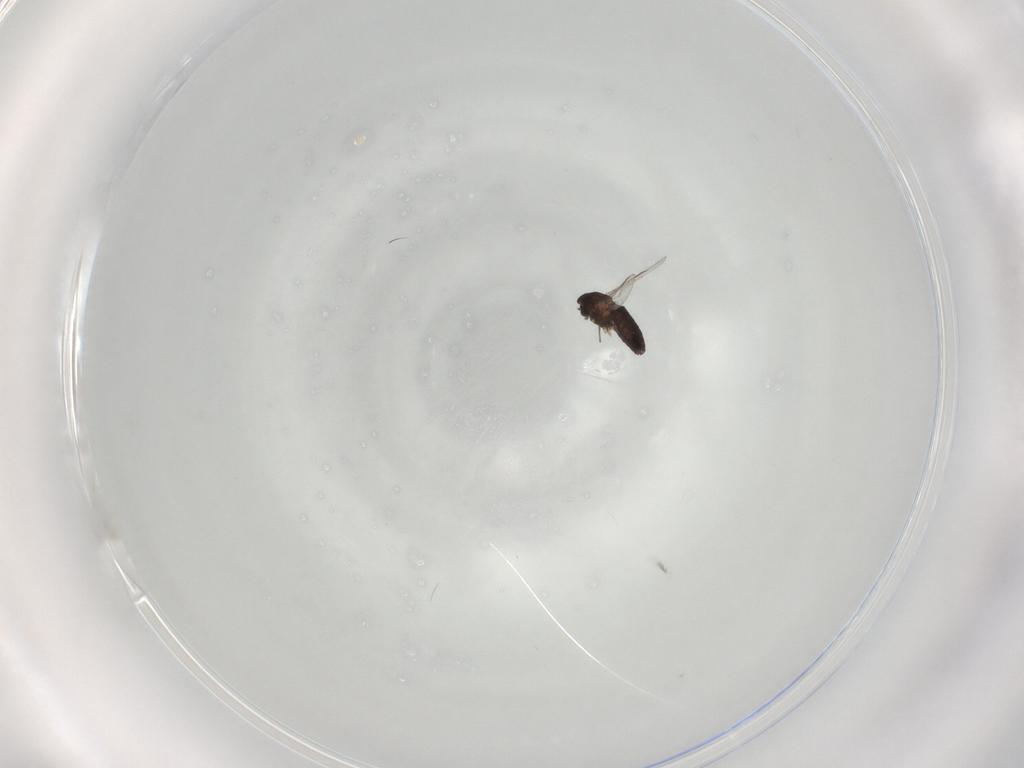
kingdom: Animalia
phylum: Arthropoda
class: Insecta
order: Diptera
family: Chironomidae
